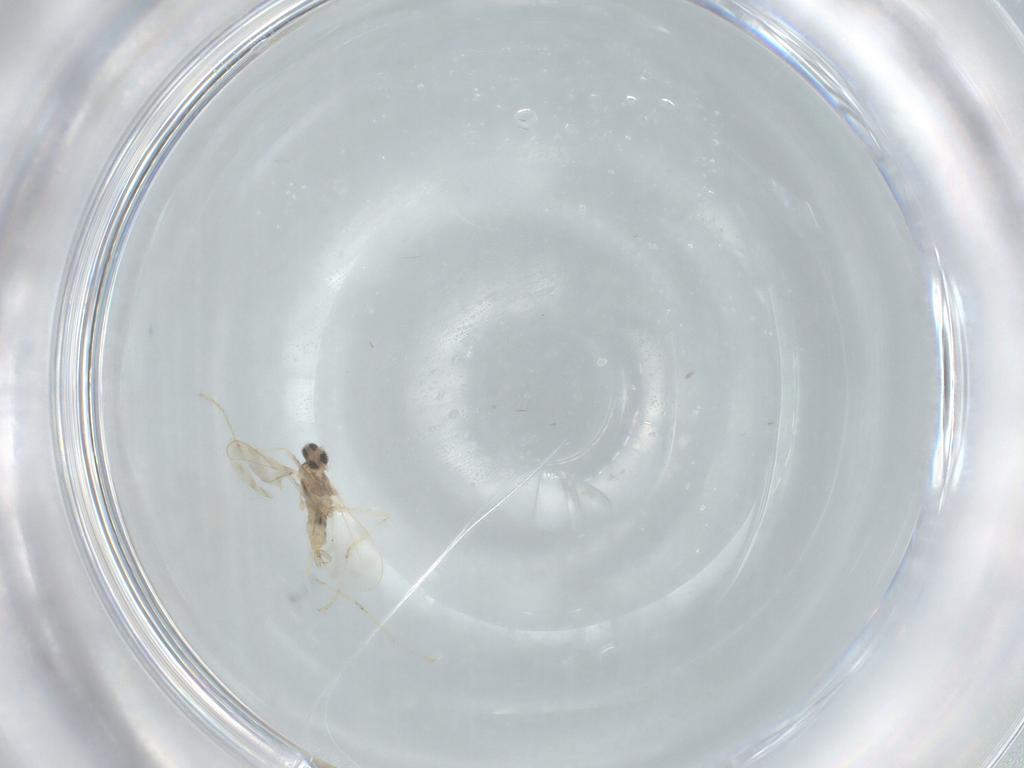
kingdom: Animalia
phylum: Arthropoda
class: Insecta
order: Diptera
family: Cecidomyiidae
